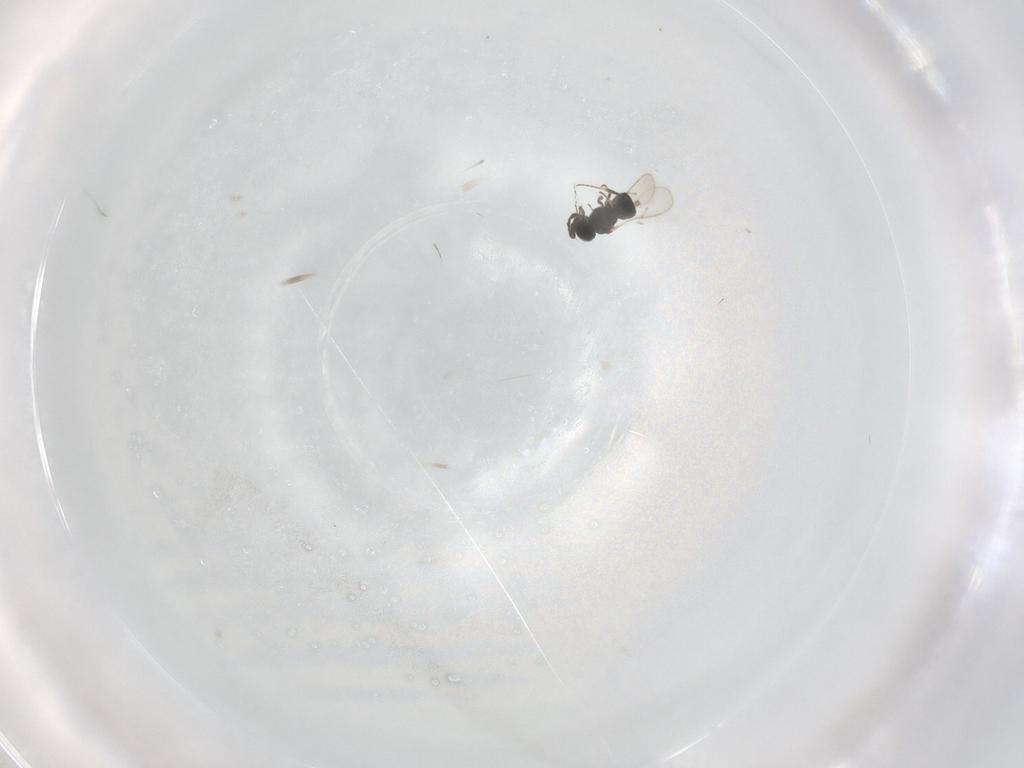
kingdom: Animalia
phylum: Arthropoda
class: Insecta
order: Hymenoptera
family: Scelionidae
